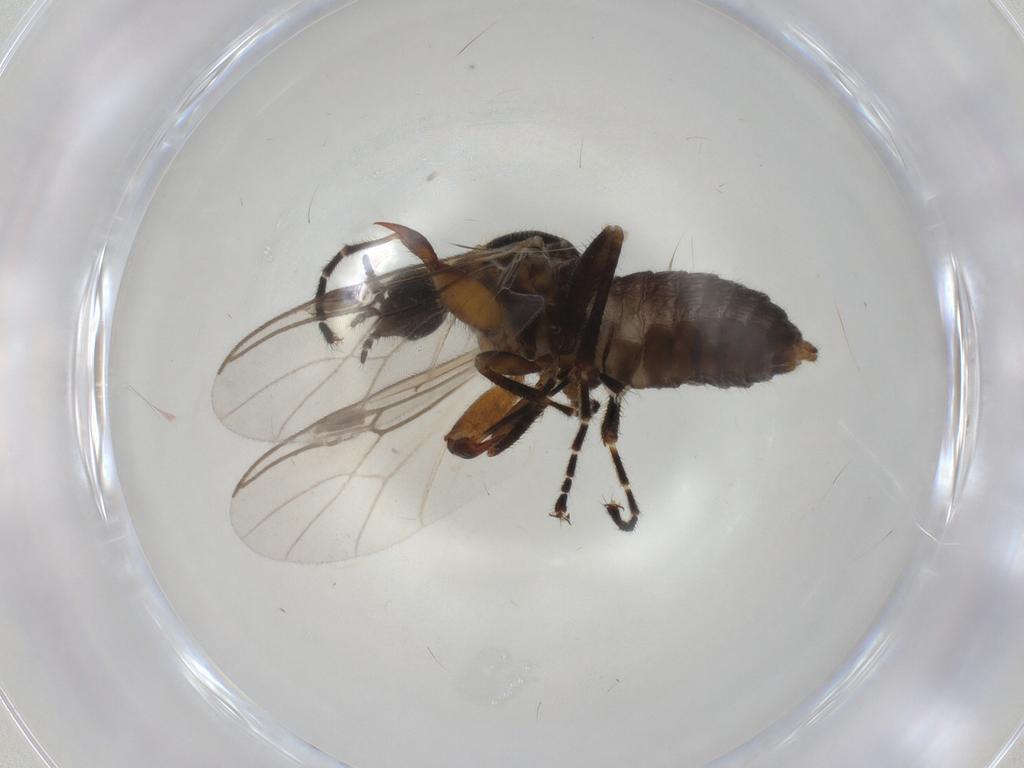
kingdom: Animalia
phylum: Arthropoda
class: Insecta
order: Diptera
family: Bibionidae
